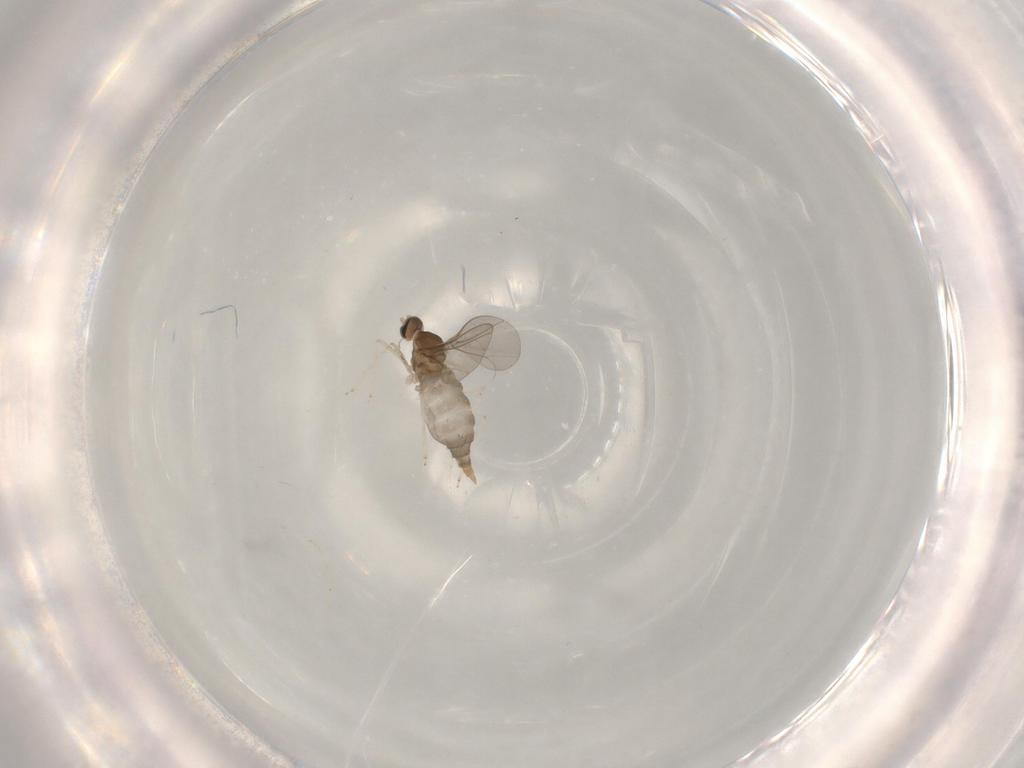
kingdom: Animalia
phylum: Arthropoda
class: Insecta
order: Diptera
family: Cecidomyiidae
